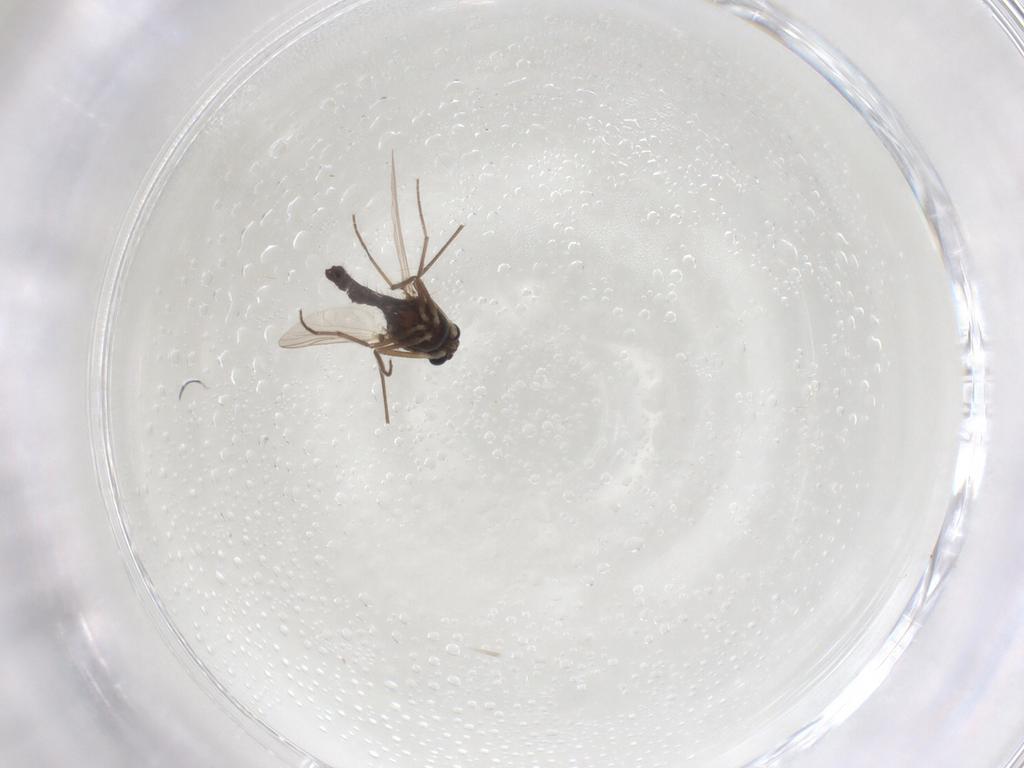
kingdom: Animalia
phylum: Arthropoda
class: Insecta
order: Diptera
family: Chironomidae
